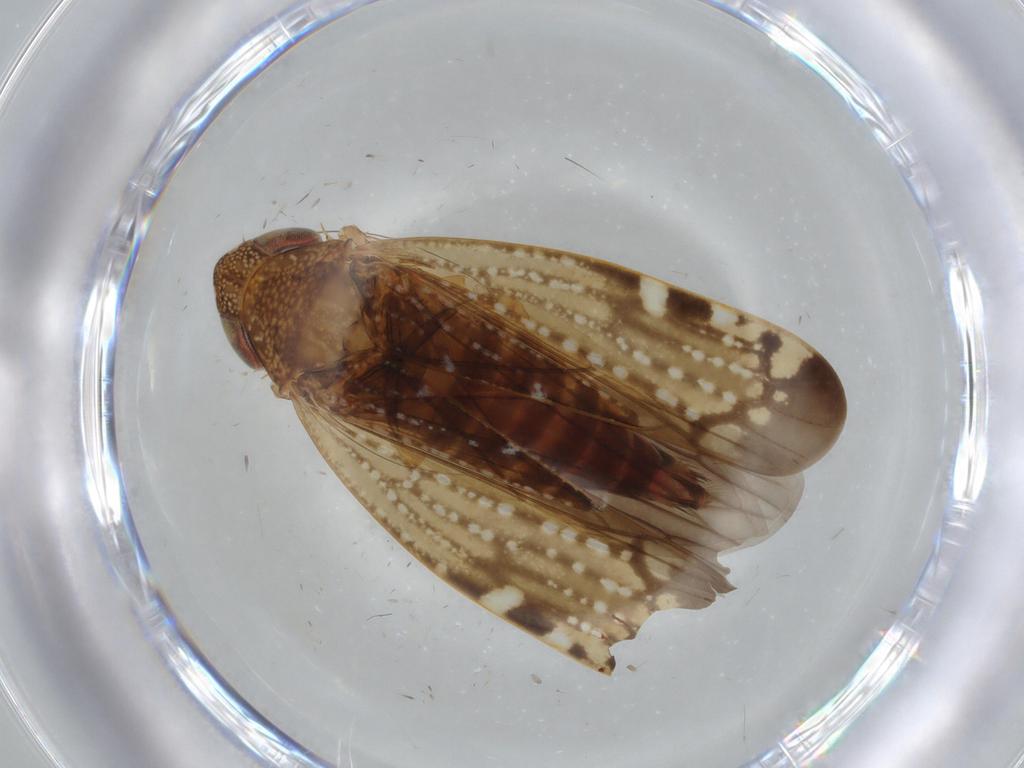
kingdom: Animalia
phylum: Arthropoda
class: Insecta
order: Hemiptera
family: Cicadellidae
